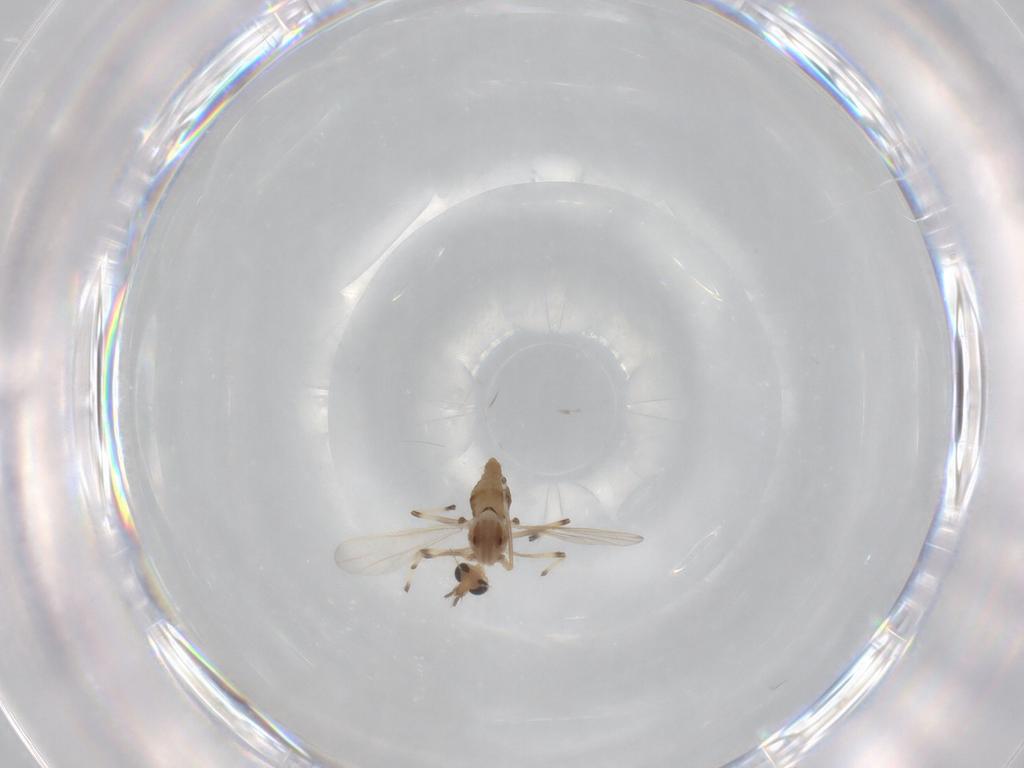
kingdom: Animalia
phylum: Arthropoda
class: Insecta
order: Diptera
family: Chironomidae
